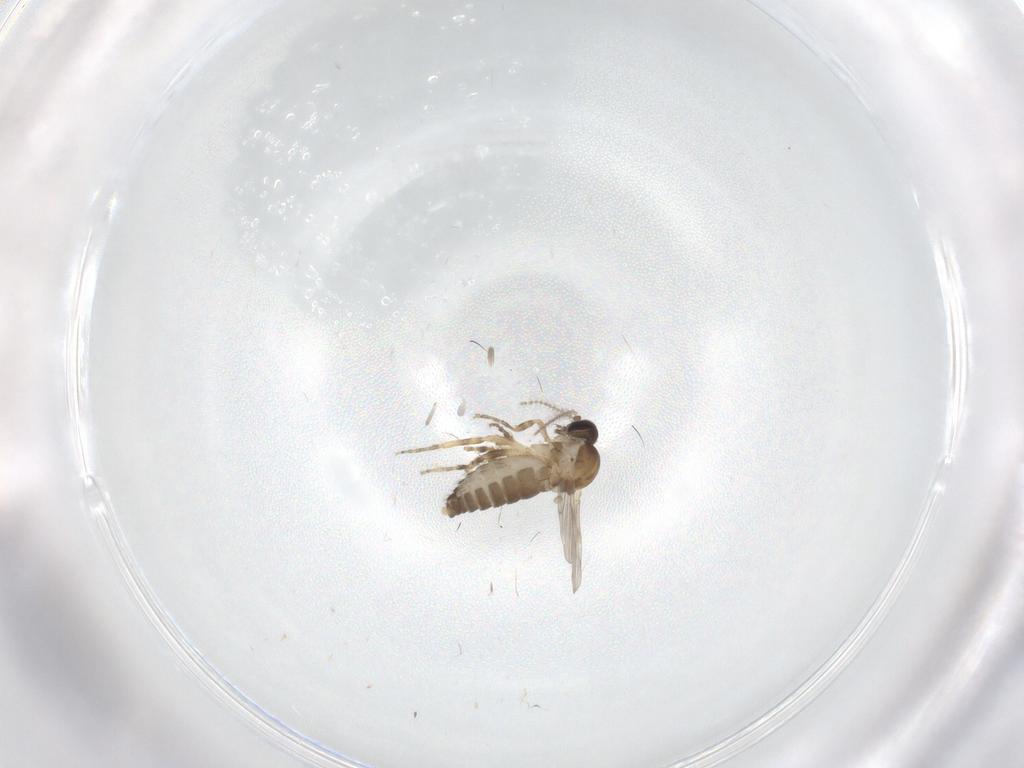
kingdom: Animalia
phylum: Arthropoda
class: Insecta
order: Diptera
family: Ceratopogonidae
